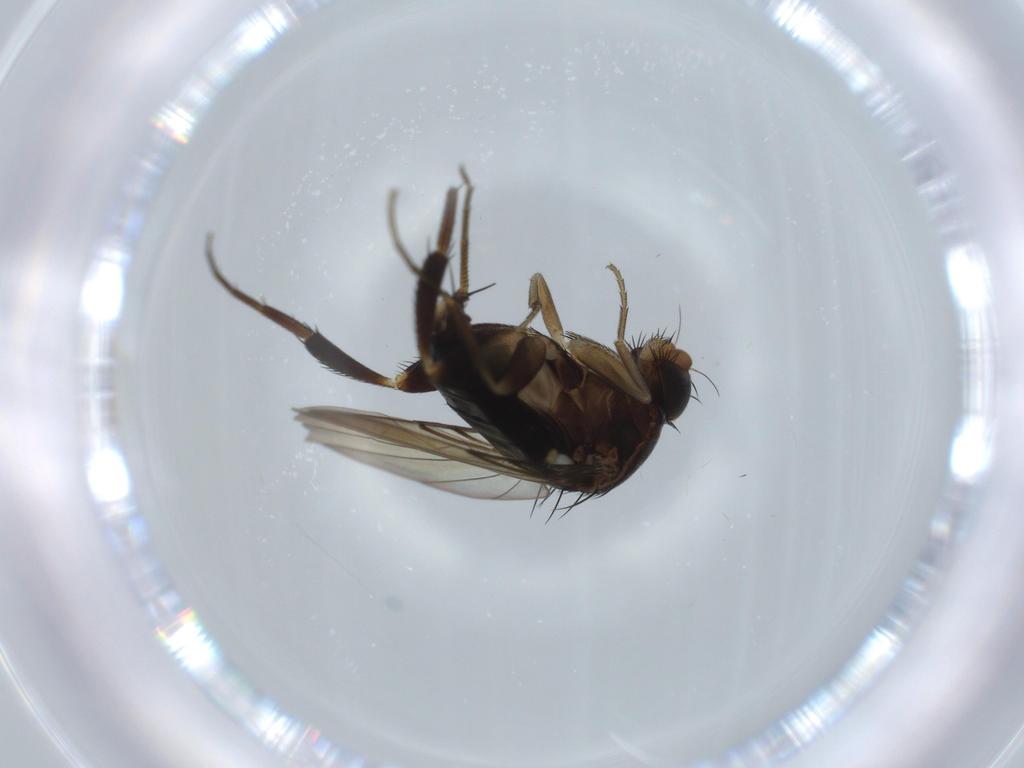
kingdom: Animalia
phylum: Arthropoda
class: Insecta
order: Diptera
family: Phoridae
